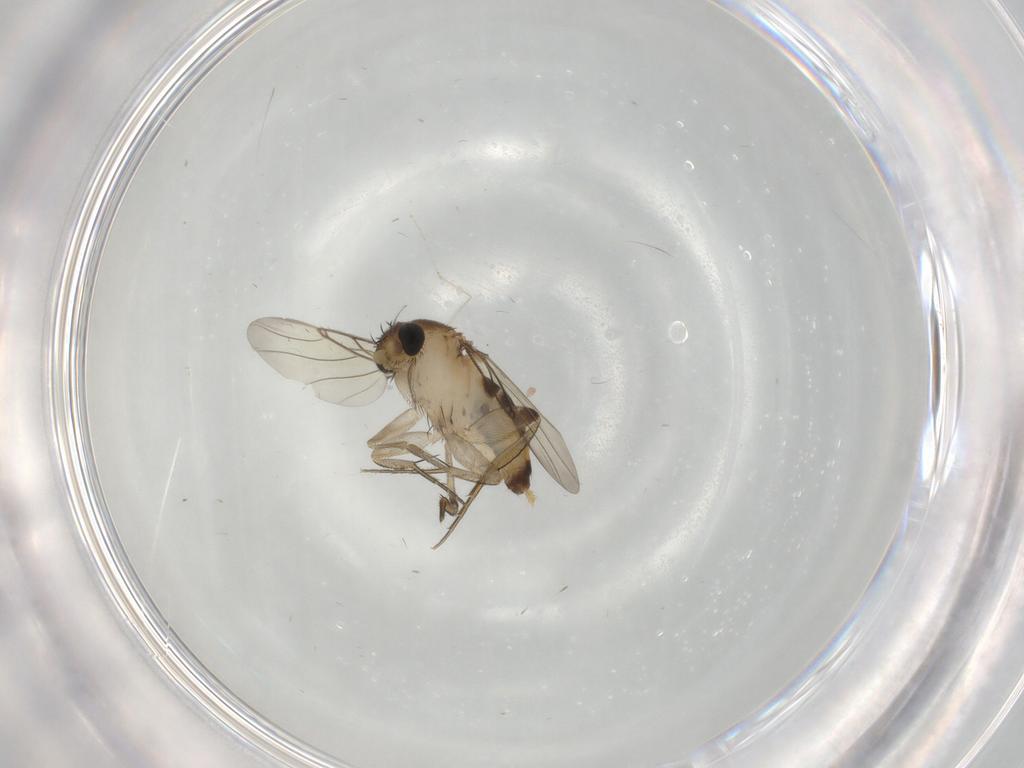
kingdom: Animalia
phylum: Arthropoda
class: Insecta
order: Diptera
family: Phoridae
